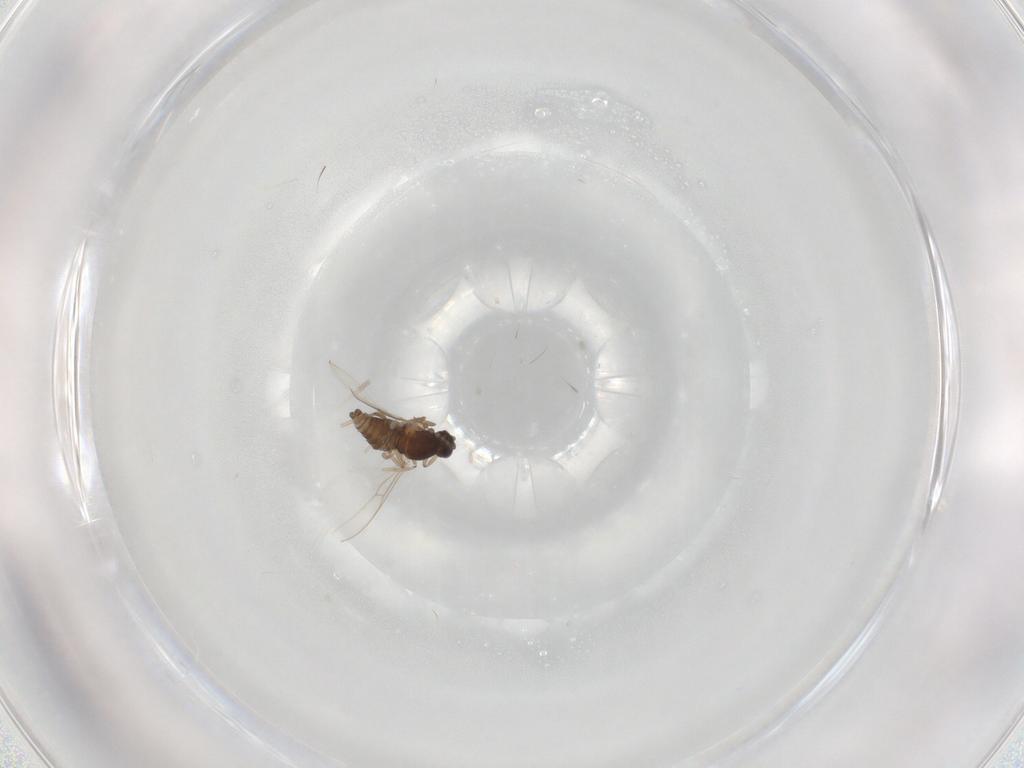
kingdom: Animalia
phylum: Arthropoda
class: Insecta
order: Diptera
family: Cecidomyiidae
